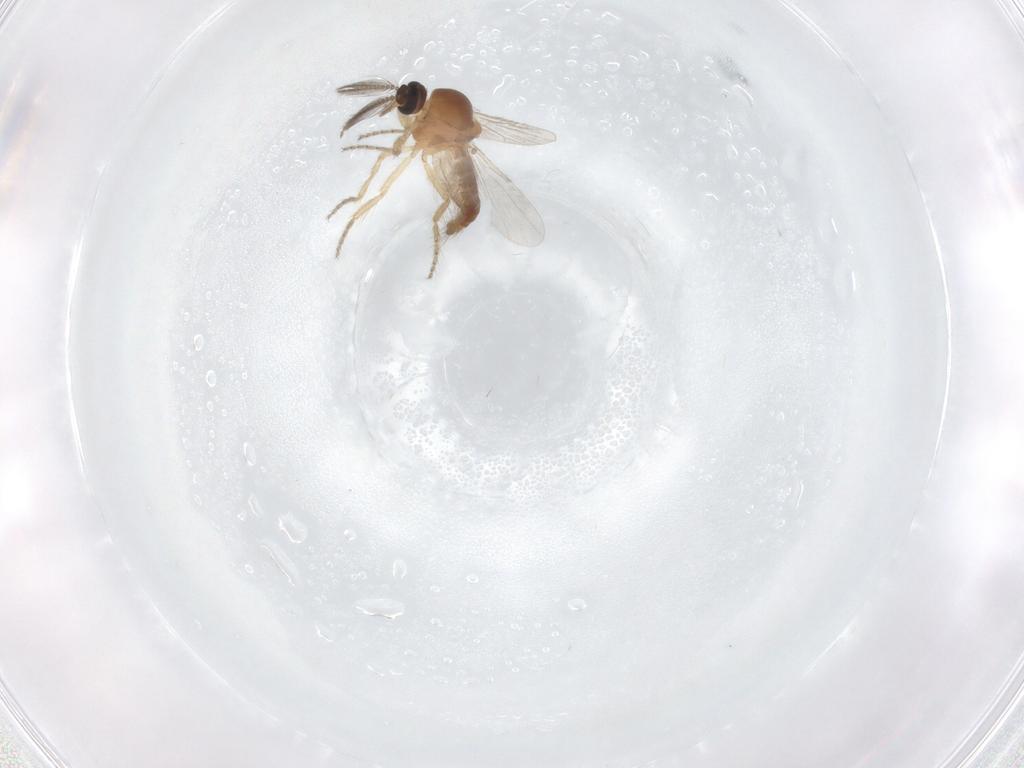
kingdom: Animalia
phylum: Arthropoda
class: Insecta
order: Diptera
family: Ceratopogonidae
